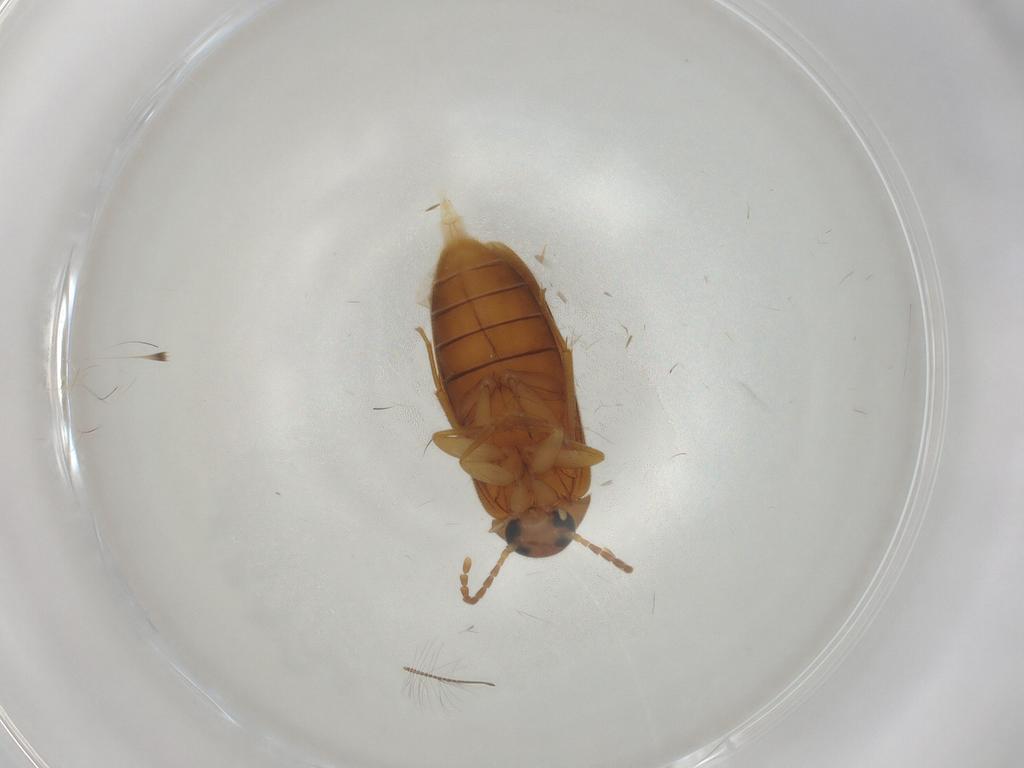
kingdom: Animalia
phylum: Arthropoda
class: Insecta
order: Coleoptera
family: Scraptiidae
